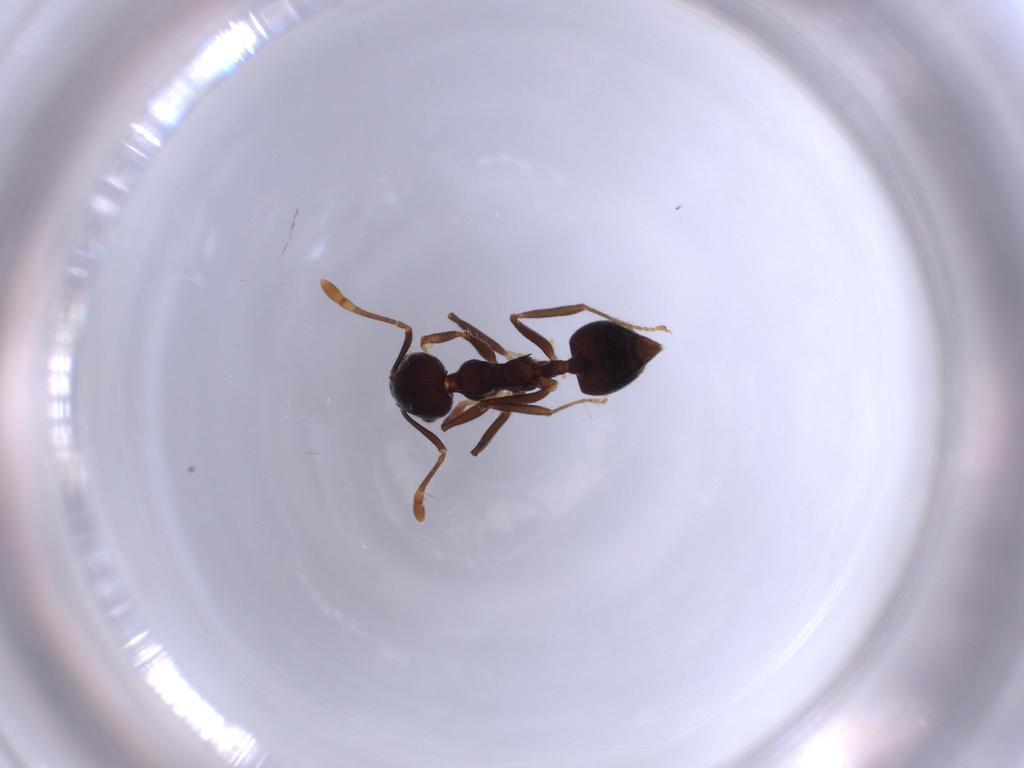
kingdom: Animalia
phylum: Arthropoda
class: Insecta
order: Hymenoptera
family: Formicidae
